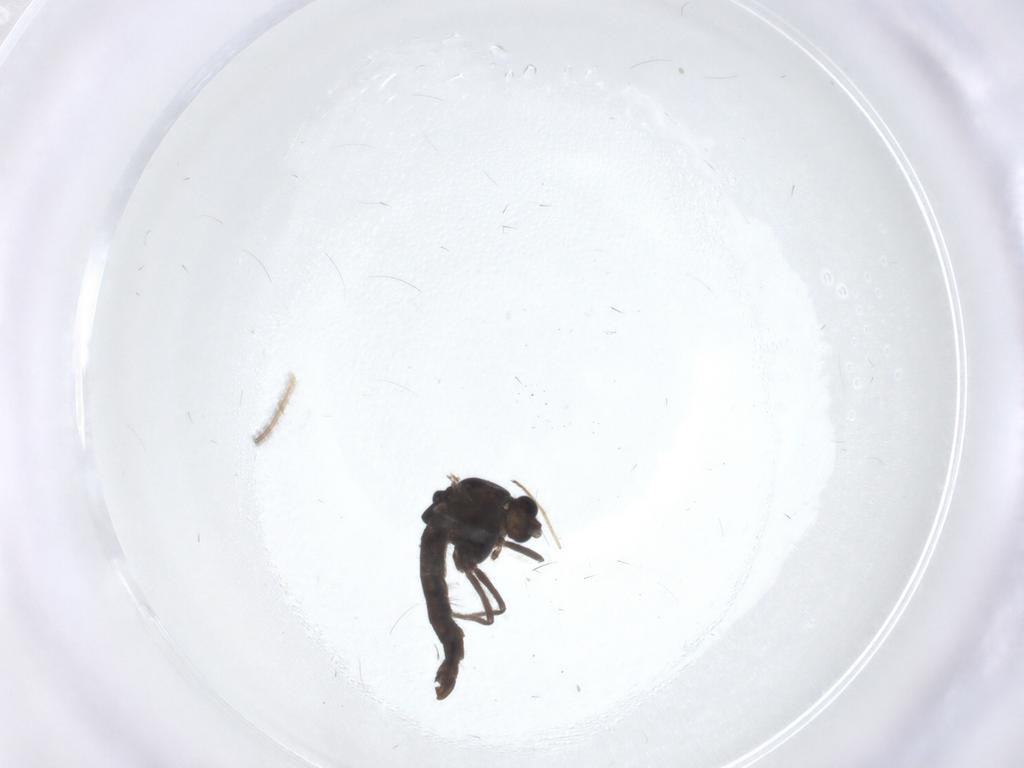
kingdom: Animalia
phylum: Arthropoda
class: Insecta
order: Diptera
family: Chironomidae
